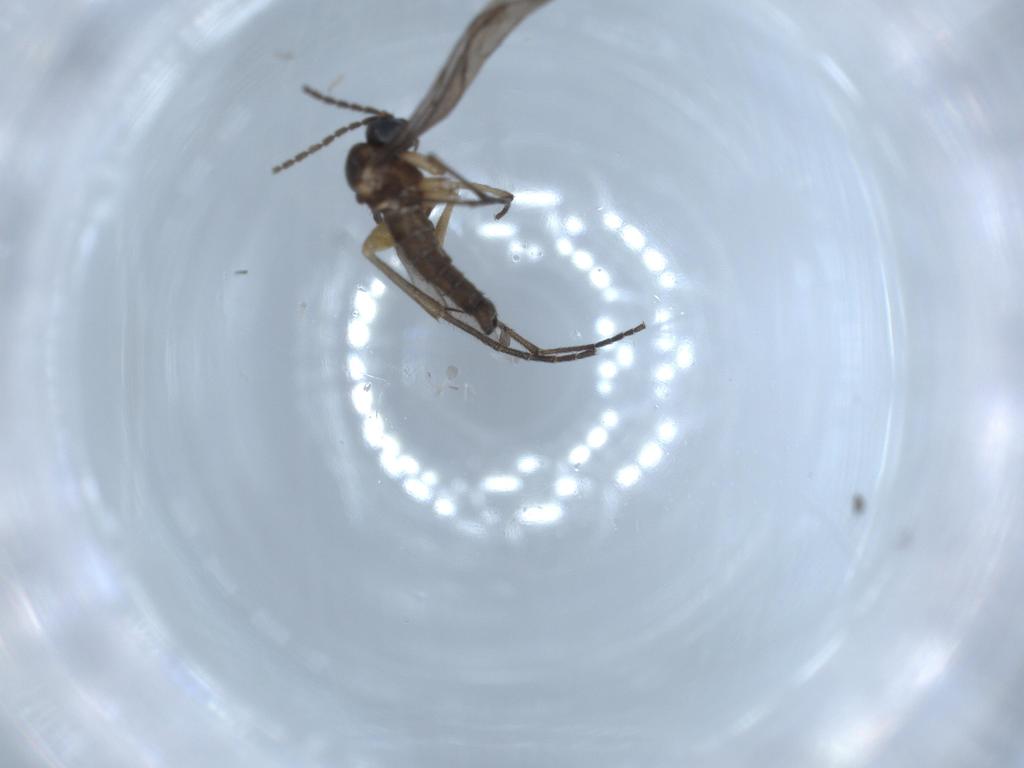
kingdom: Animalia
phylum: Arthropoda
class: Insecta
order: Diptera
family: Sciaridae
